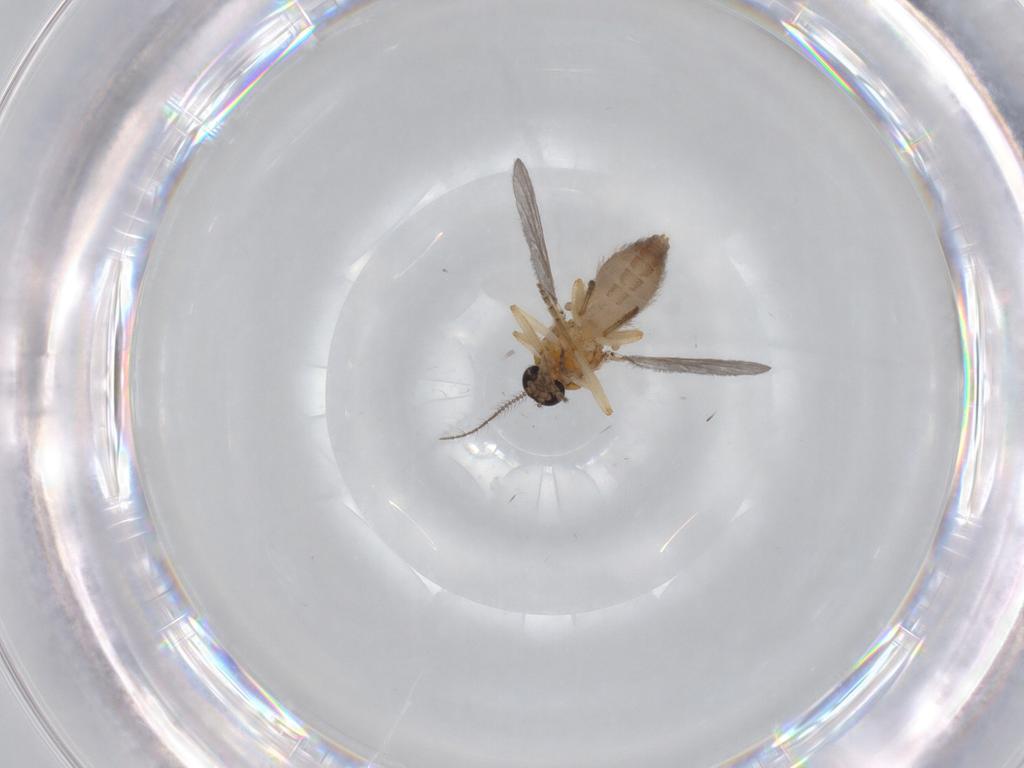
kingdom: Animalia
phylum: Arthropoda
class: Insecta
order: Diptera
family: Ceratopogonidae
